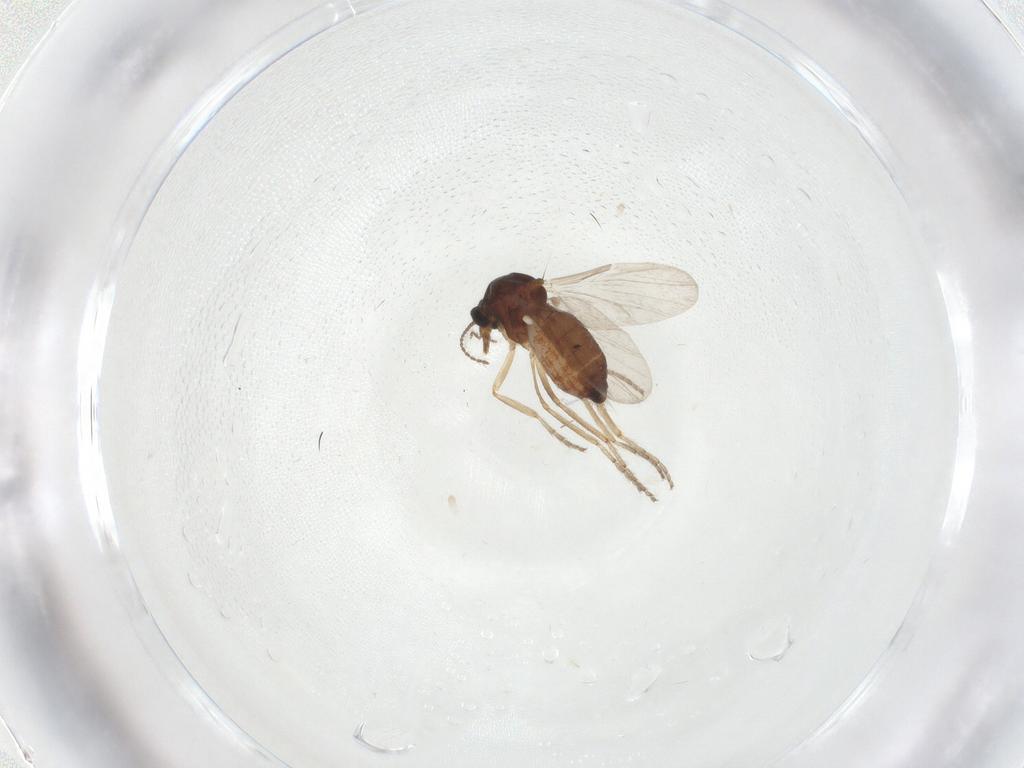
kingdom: Animalia
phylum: Arthropoda
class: Insecta
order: Diptera
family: Ceratopogonidae
